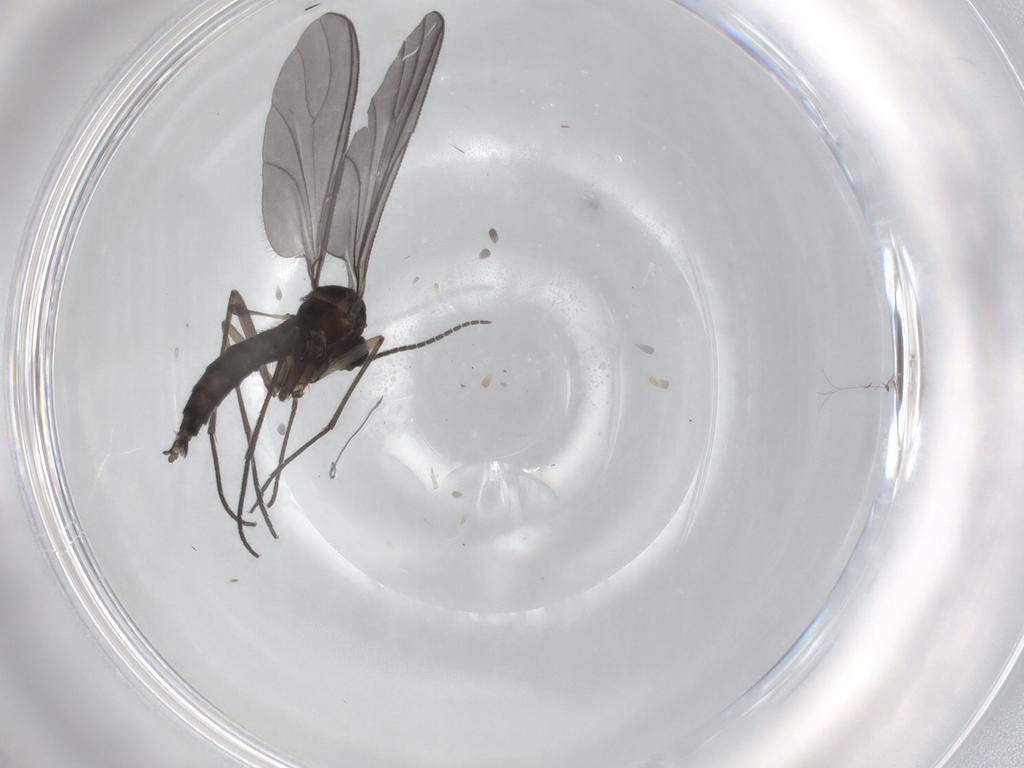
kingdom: Animalia
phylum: Arthropoda
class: Insecta
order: Diptera
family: Sciaridae
